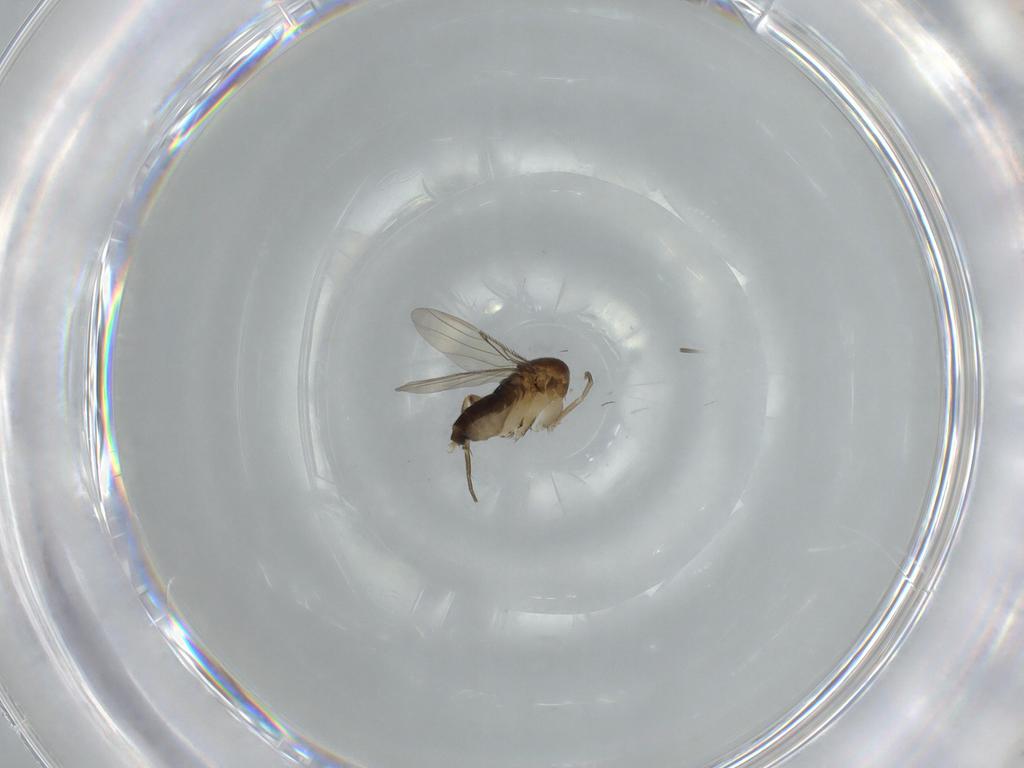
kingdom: Animalia
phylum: Arthropoda
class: Insecta
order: Diptera
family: Phoridae
